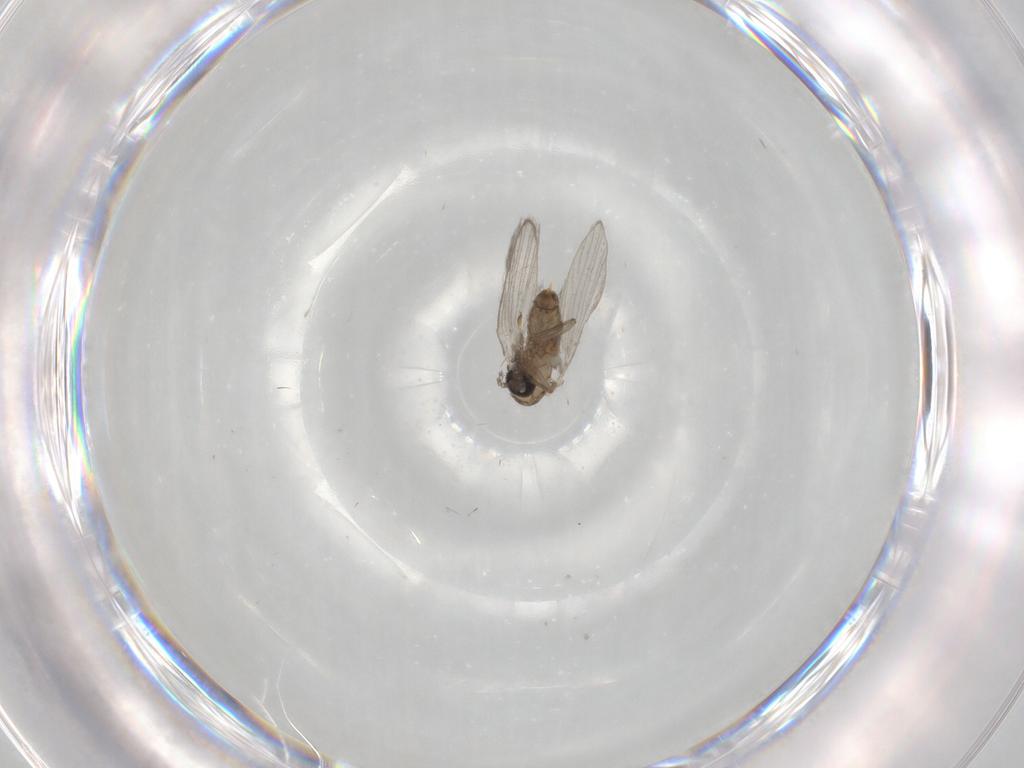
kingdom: Animalia
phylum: Arthropoda
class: Insecta
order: Diptera
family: Psychodidae
